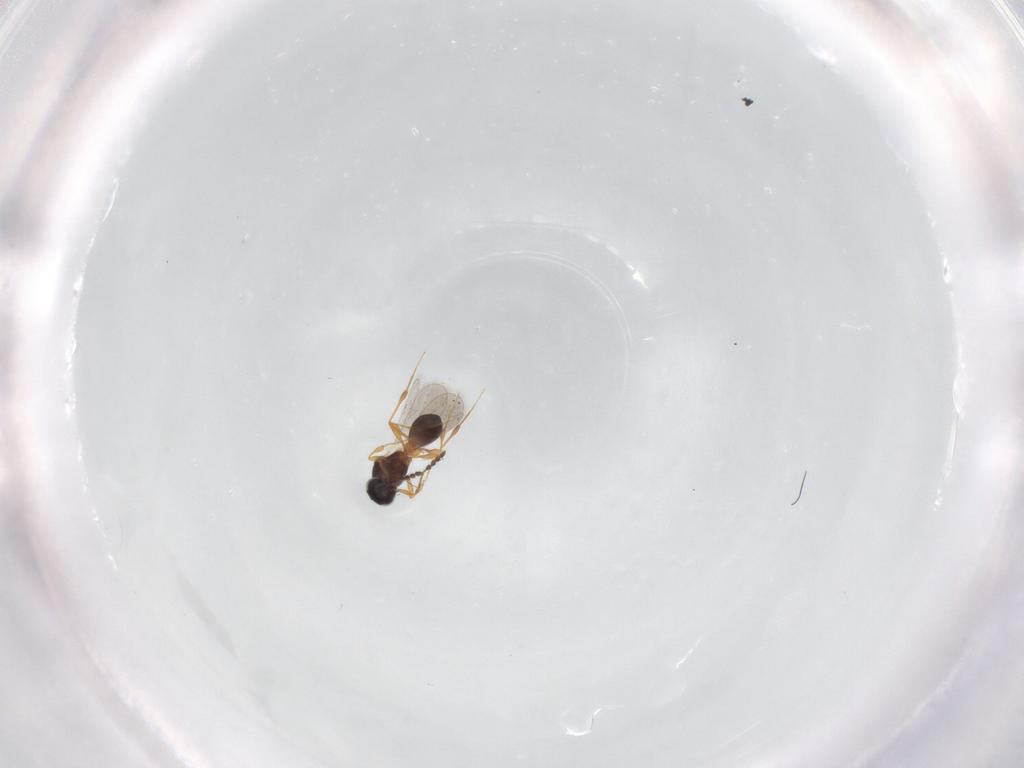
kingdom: Animalia
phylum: Arthropoda
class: Insecta
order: Hymenoptera
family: Platygastridae
